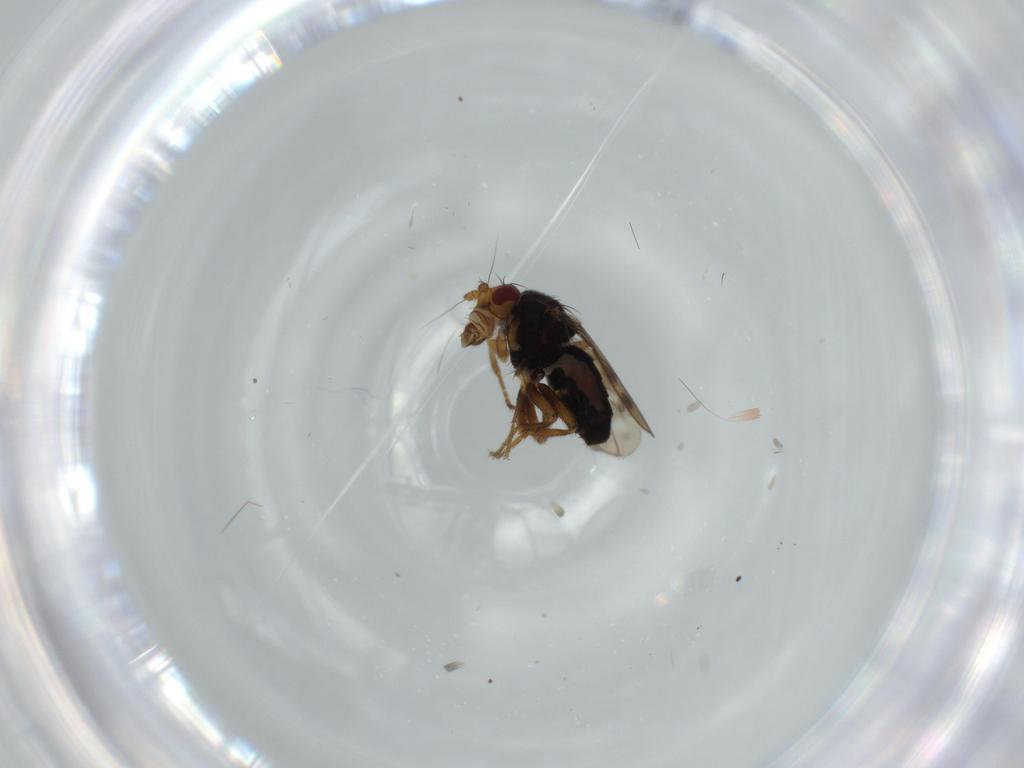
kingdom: Animalia
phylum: Arthropoda
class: Insecta
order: Diptera
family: Sphaeroceridae
